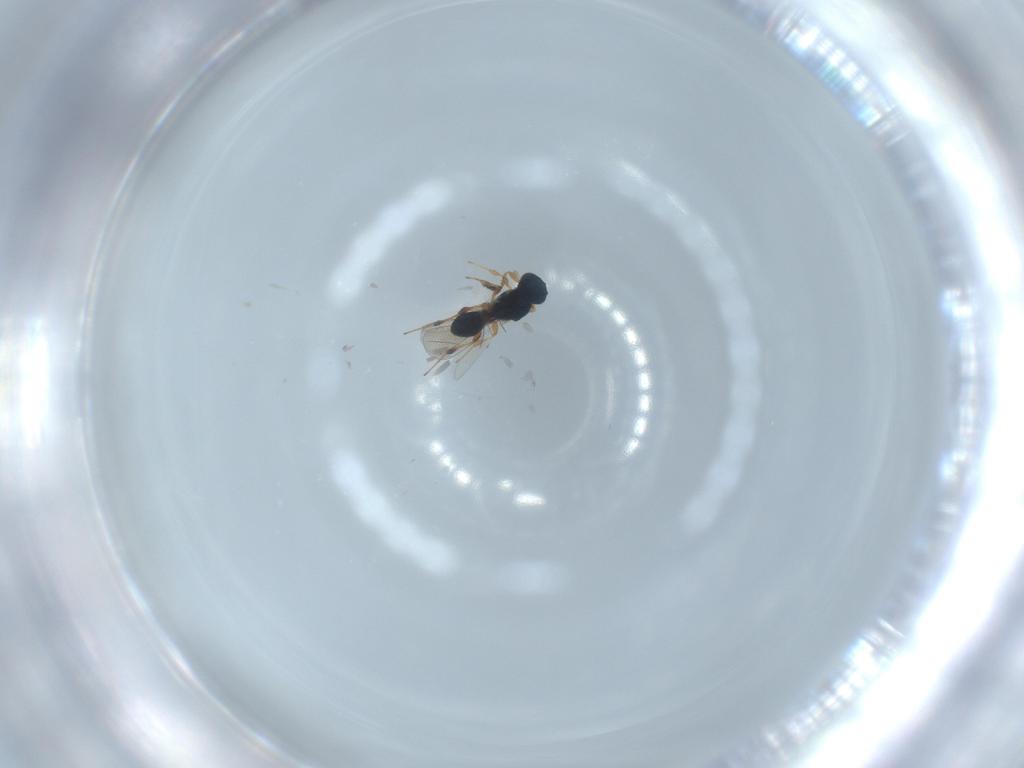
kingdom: Animalia
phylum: Arthropoda
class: Insecta
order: Hymenoptera
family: Platygastridae
